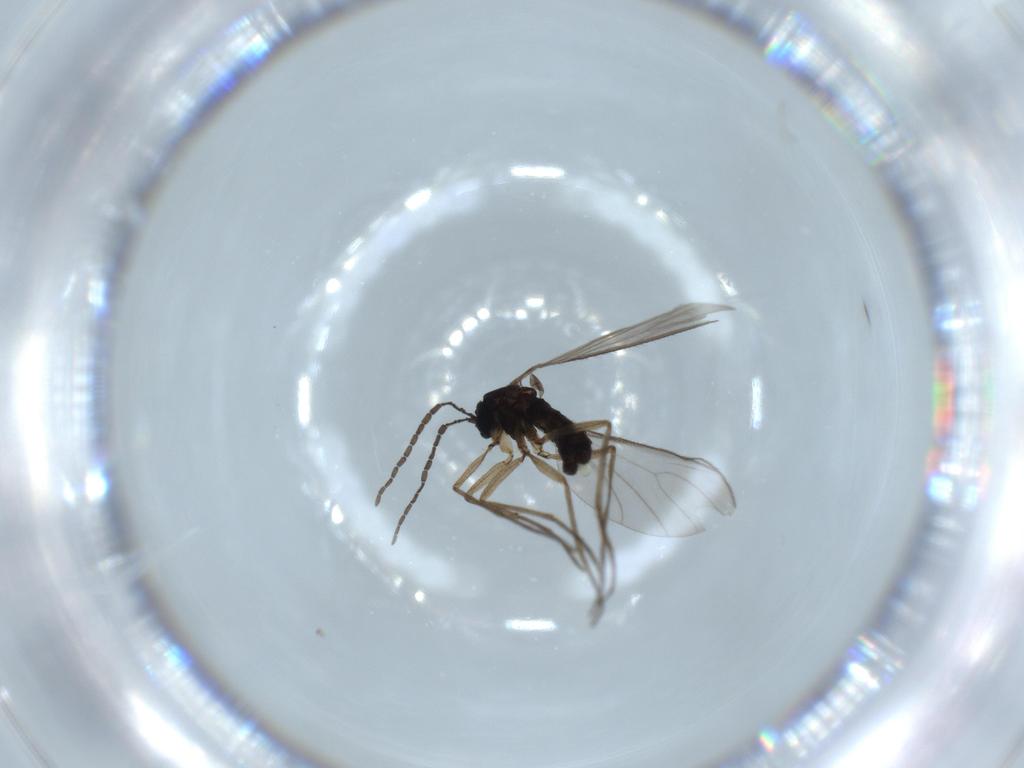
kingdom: Animalia
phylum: Arthropoda
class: Insecta
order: Diptera
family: Sciaridae
